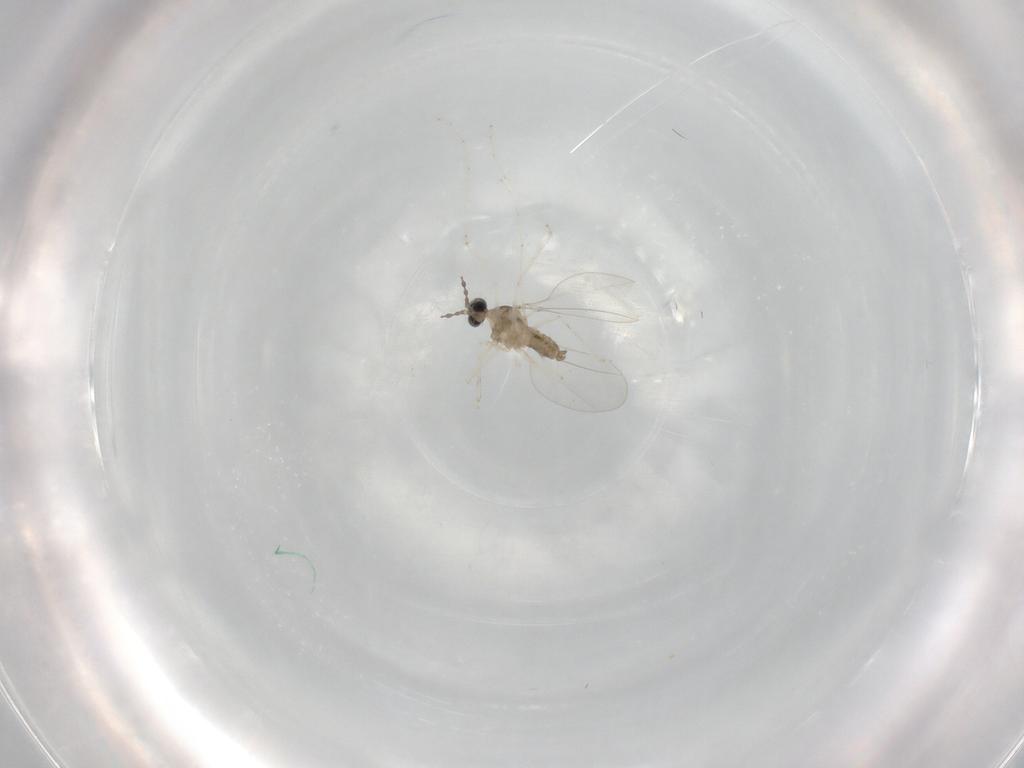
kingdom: Animalia
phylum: Arthropoda
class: Insecta
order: Diptera
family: Cecidomyiidae
